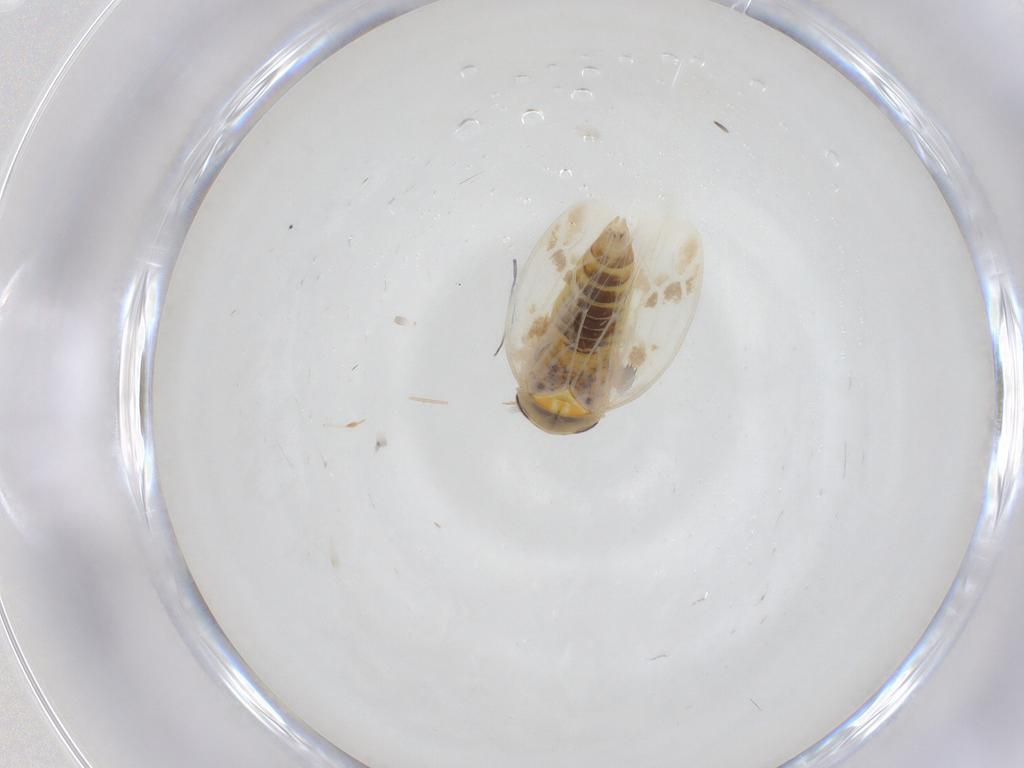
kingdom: Animalia
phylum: Arthropoda
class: Insecta
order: Hemiptera
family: Cicadellidae
